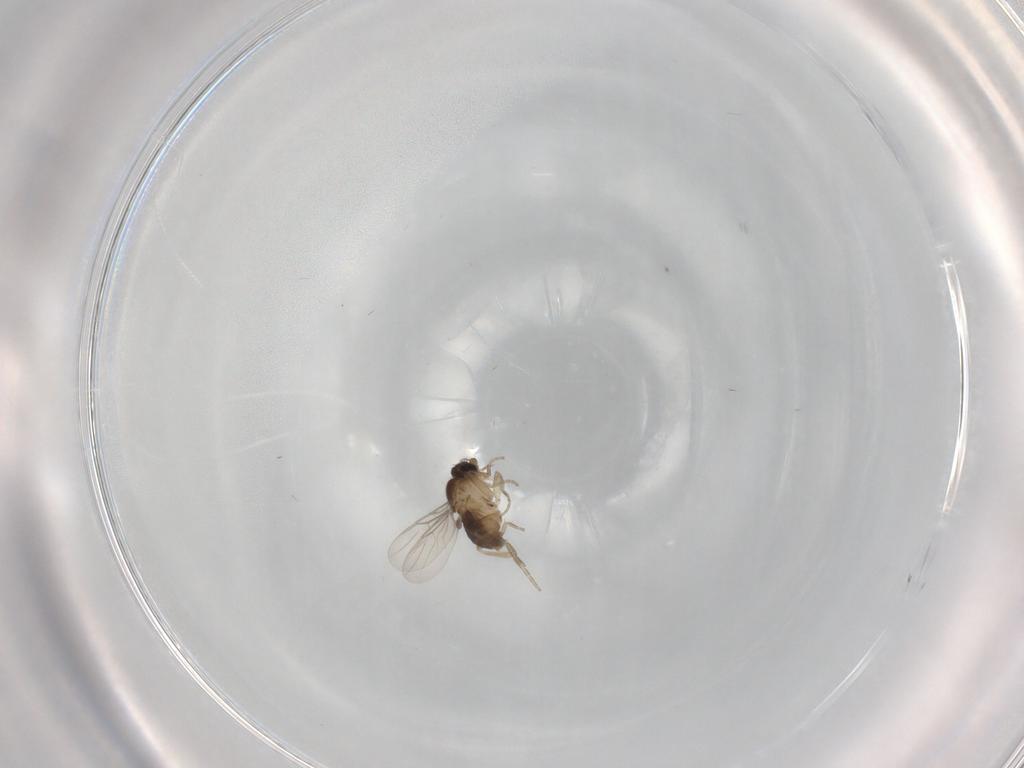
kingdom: Animalia
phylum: Arthropoda
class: Insecta
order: Diptera
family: Phoridae
